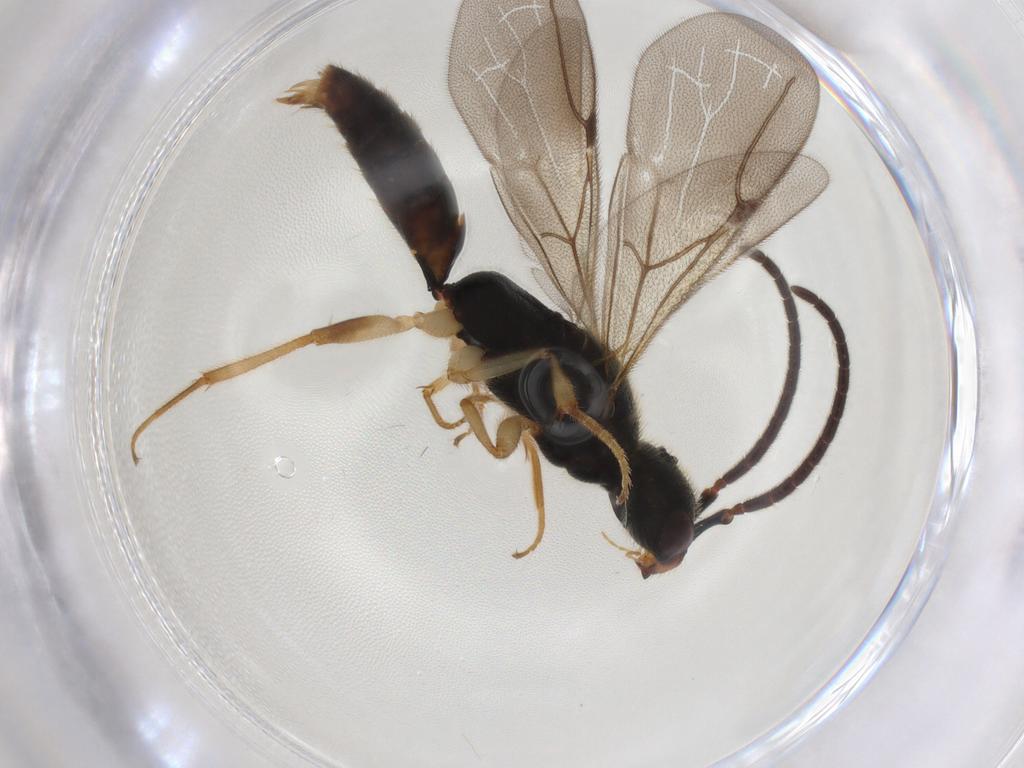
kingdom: Animalia
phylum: Arthropoda
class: Insecta
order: Hymenoptera
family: Bethylidae
